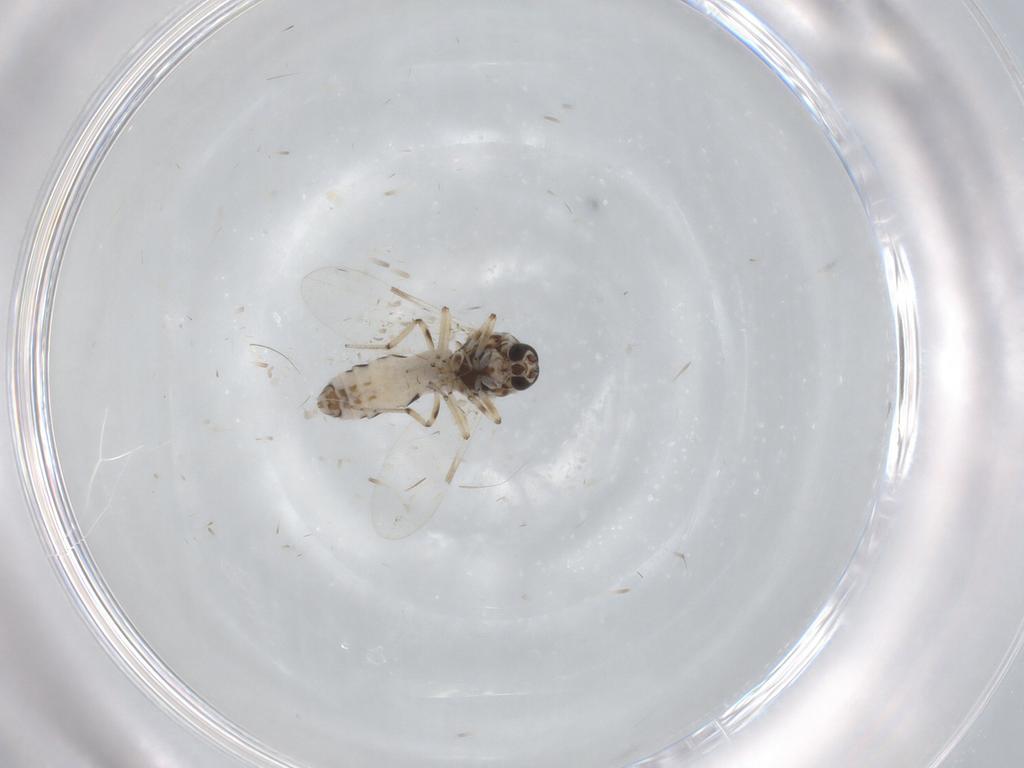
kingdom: Animalia
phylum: Arthropoda
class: Insecta
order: Diptera
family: Ceratopogonidae
